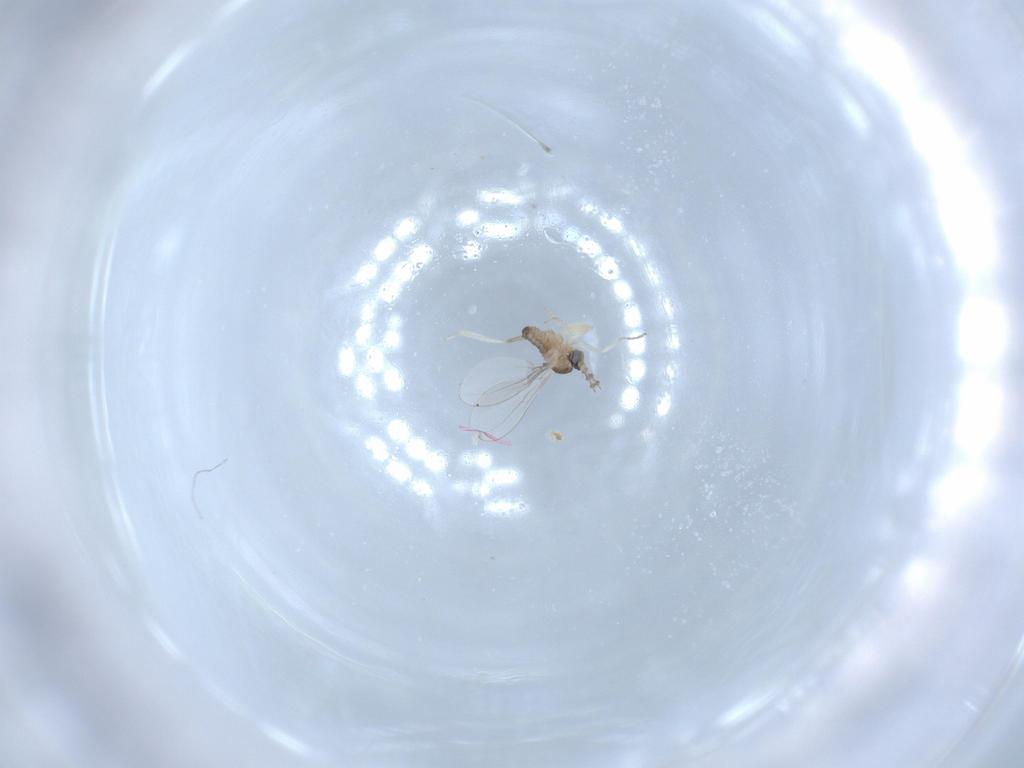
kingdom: Animalia
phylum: Arthropoda
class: Insecta
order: Diptera
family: Cecidomyiidae
